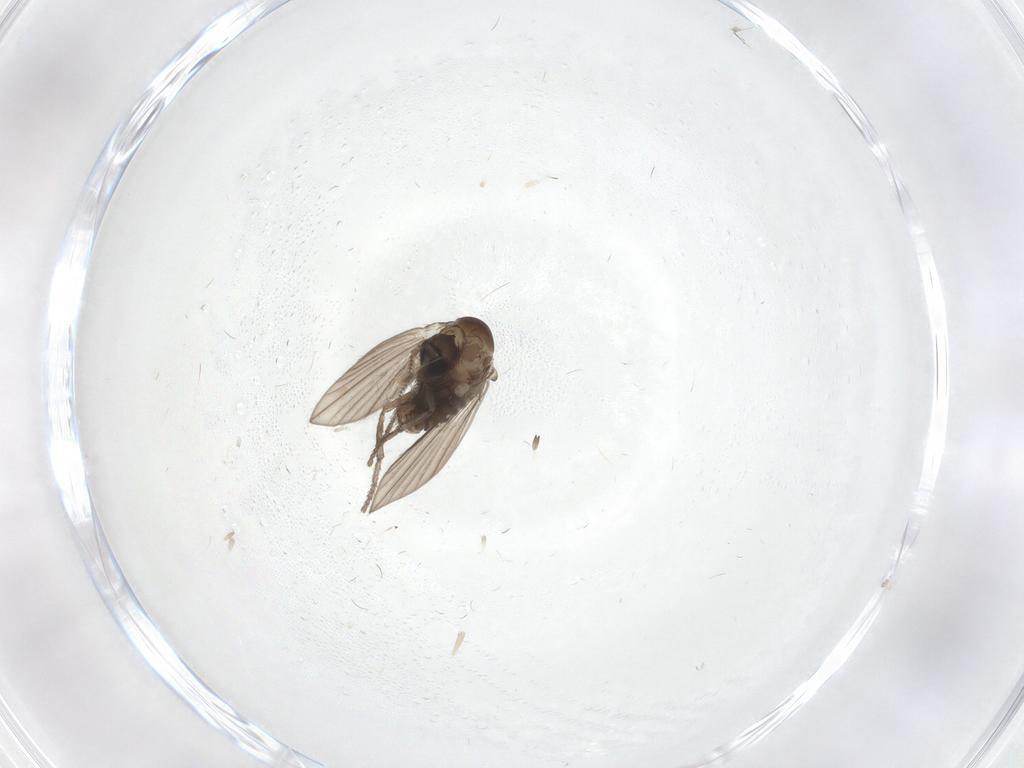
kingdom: Animalia
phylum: Arthropoda
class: Insecta
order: Diptera
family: Psychodidae
